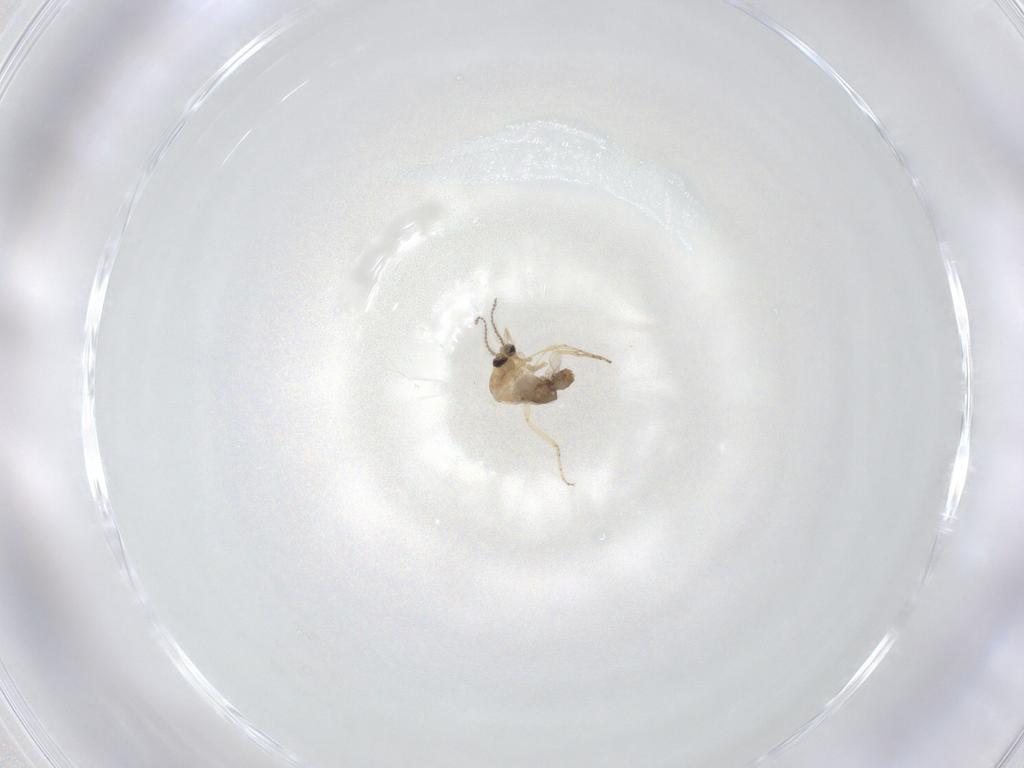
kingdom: Animalia
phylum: Arthropoda
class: Insecta
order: Diptera
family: Ceratopogonidae
